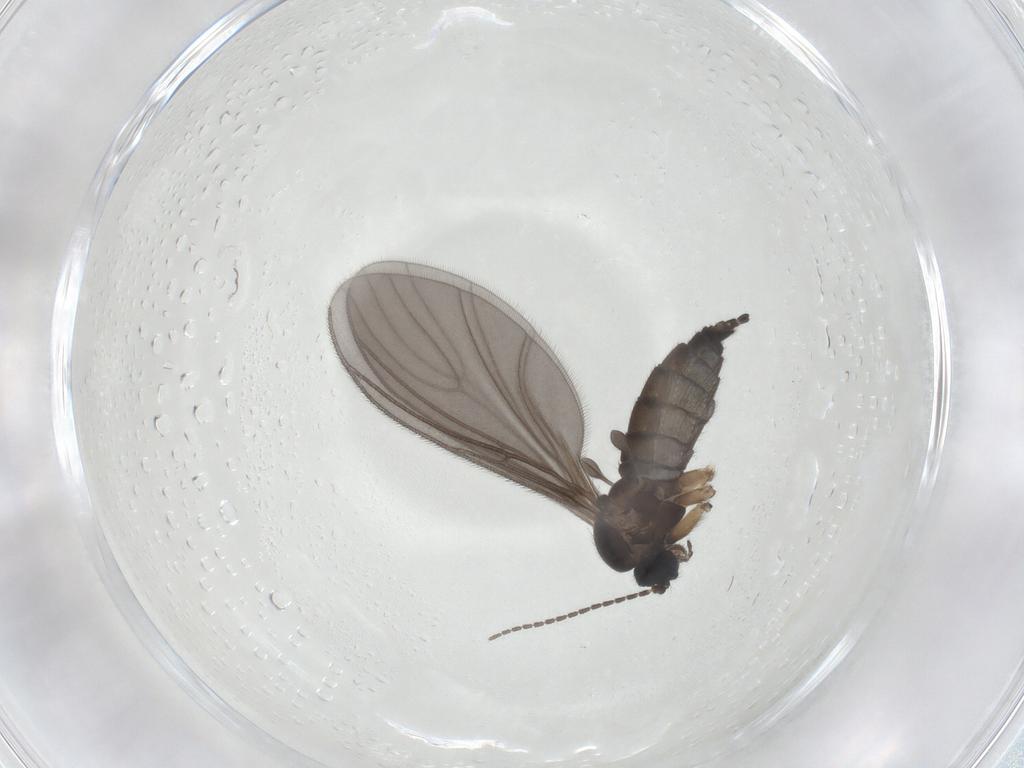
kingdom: Animalia
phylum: Arthropoda
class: Insecta
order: Diptera
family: Sciaridae
